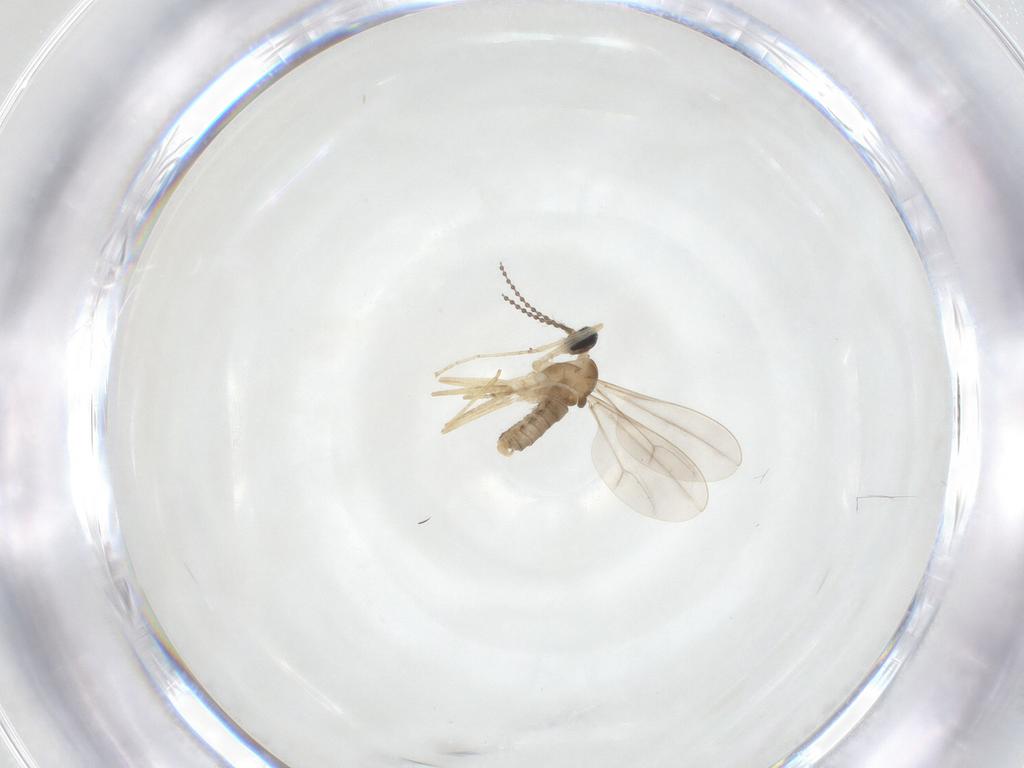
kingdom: Animalia
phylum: Arthropoda
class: Insecta
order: Diptera
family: Cecidomyiidae
